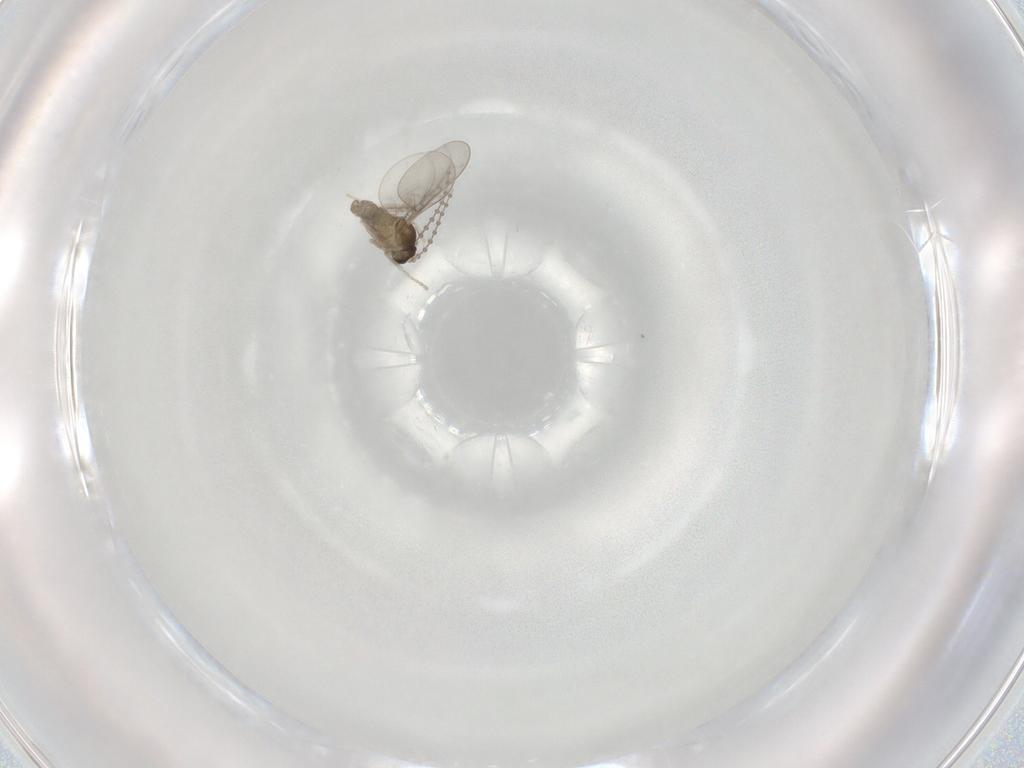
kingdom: Animalia
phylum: Arthropoda
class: Insecta
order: Diptera
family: Cecidomyiidae
